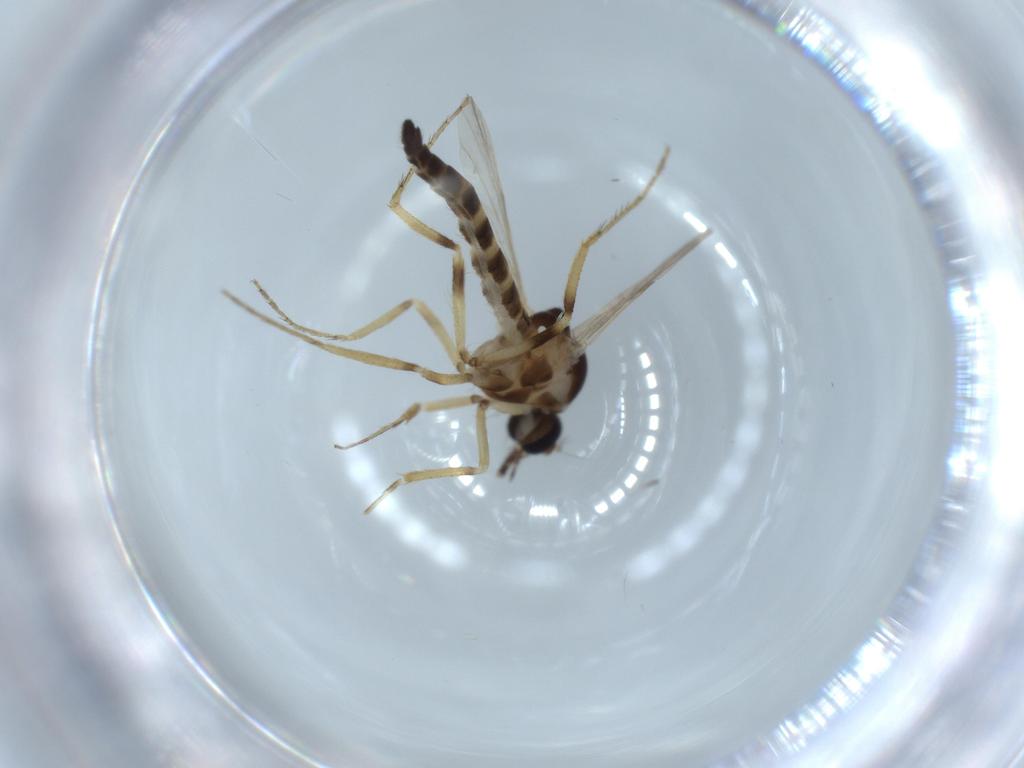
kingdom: Animalia
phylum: Arthropoda
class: Insecta
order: Diptera
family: Ceratopogonidae
